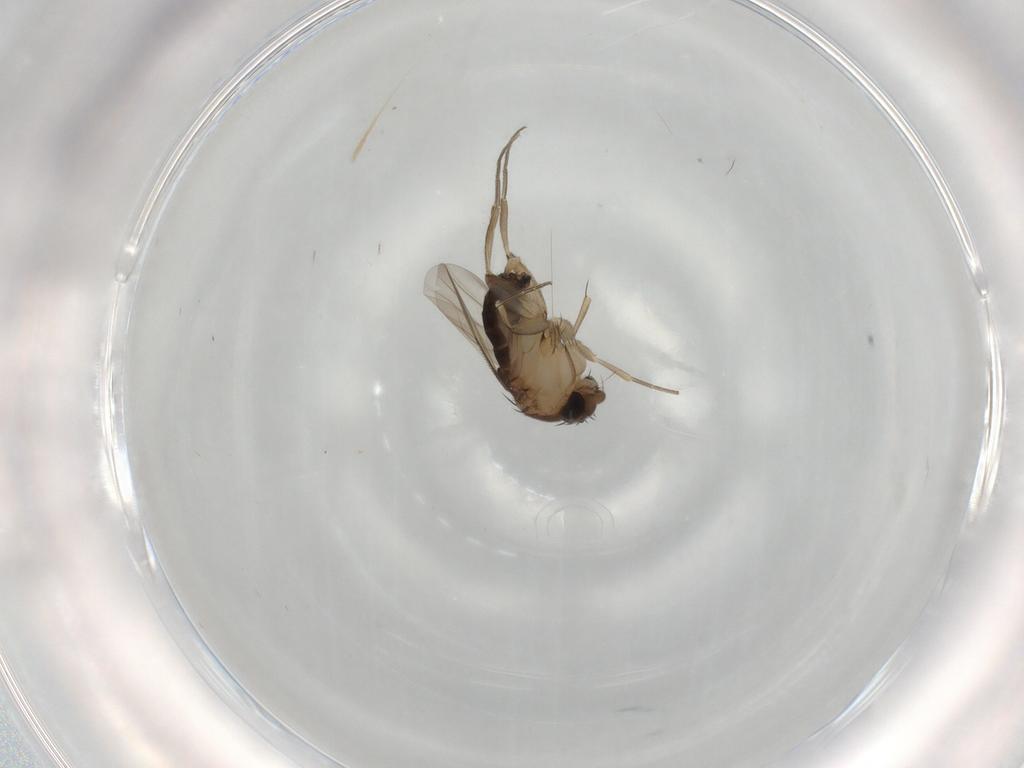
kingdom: Animalia
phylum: Arthropoda
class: Insecta
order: Diptera
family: Phoridae
